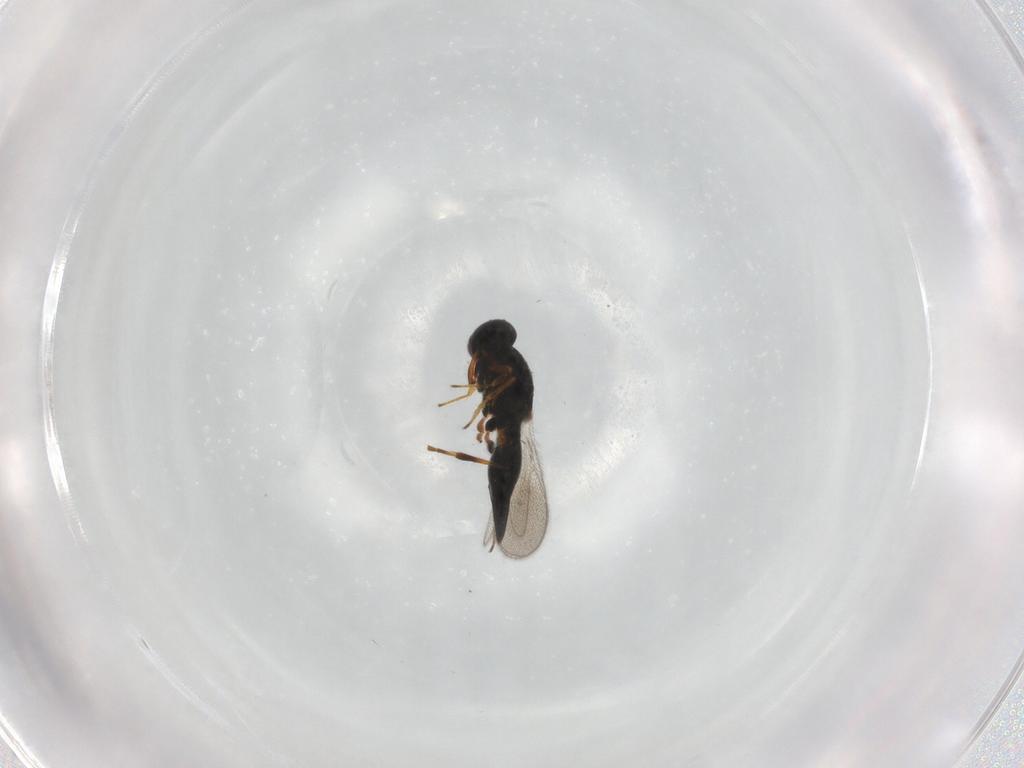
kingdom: Animalia
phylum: Arthropoda
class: Insecta
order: Hymenoptera
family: Platygastridae
